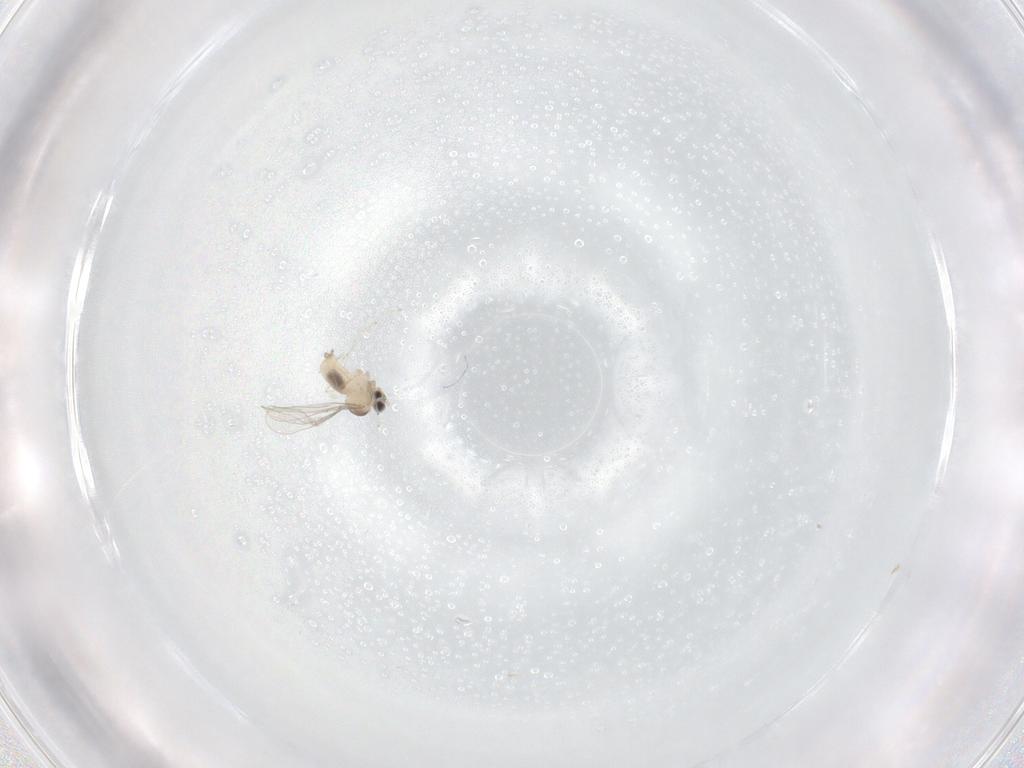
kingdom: Animalia
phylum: Arthropoda
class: Insecta
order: Diptera
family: Cecidomyiidae
